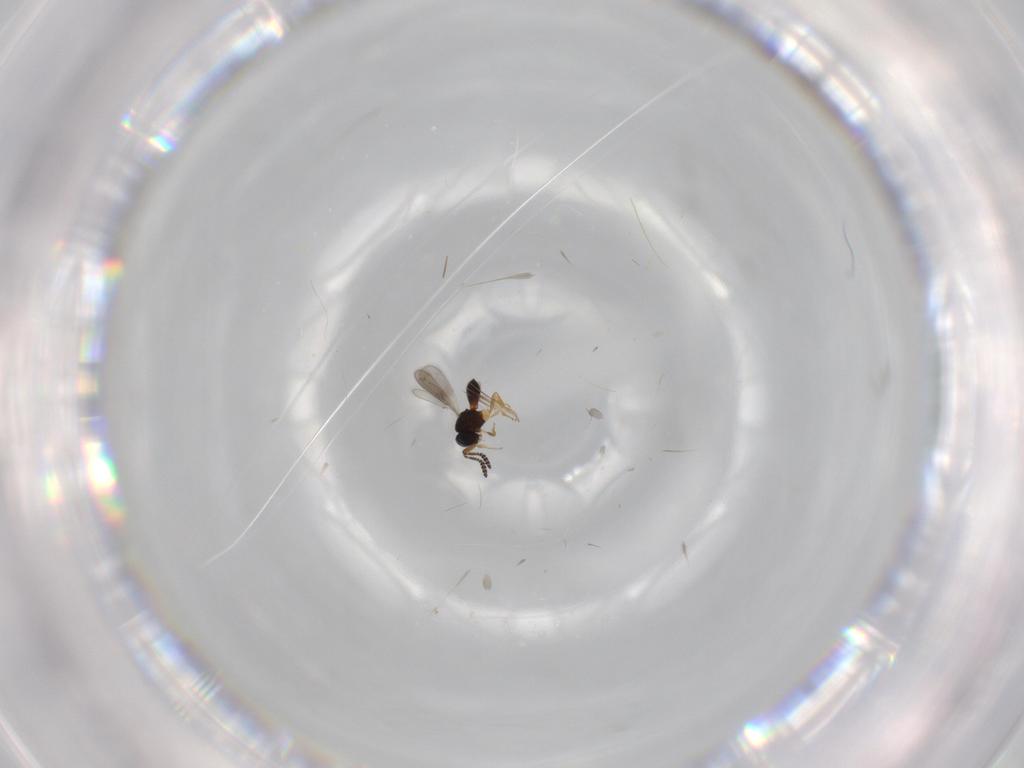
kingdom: Animalia
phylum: Arthropoda
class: Insecta
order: Hymenoptera
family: Scelionidae
